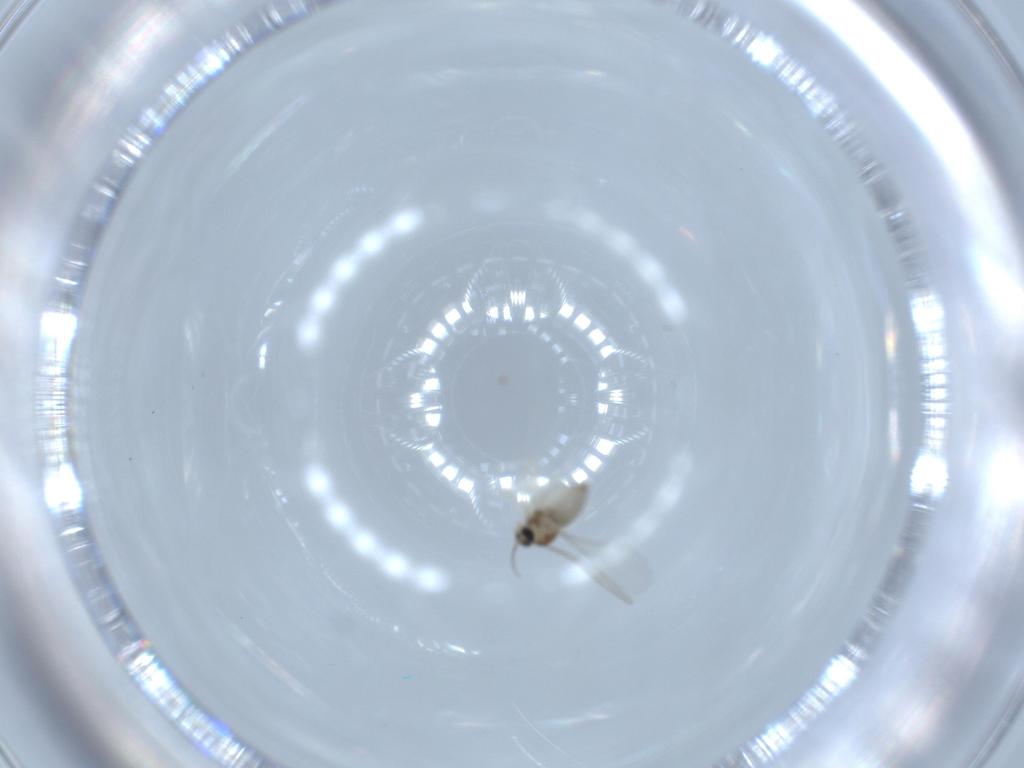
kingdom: Animalia
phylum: Arthropoda
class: Insecta
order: Diptera
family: Cecidomyiidae
